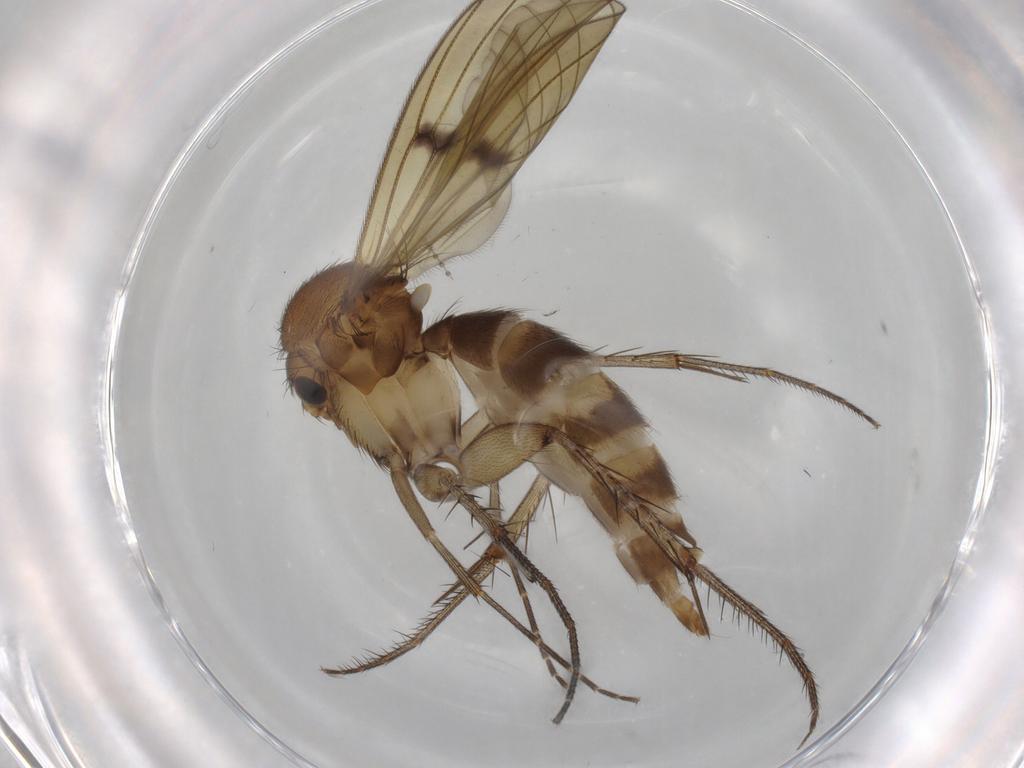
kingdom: Animalia
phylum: Arthropoda
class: Insecta
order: Diptera
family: Mycetophilidae
